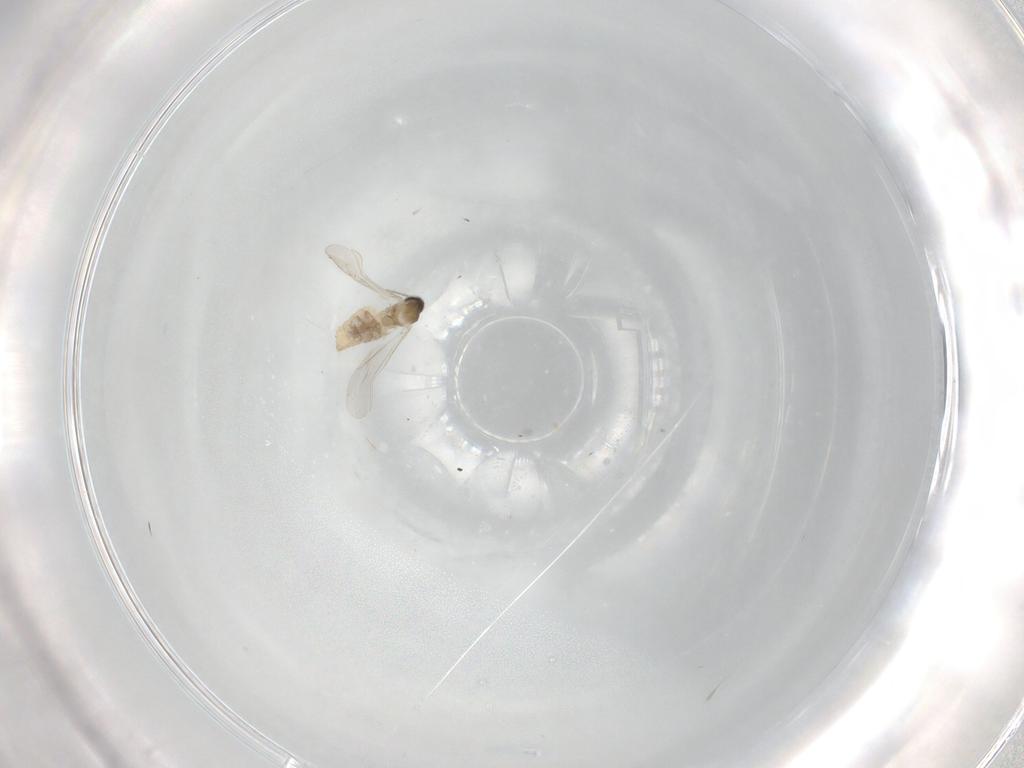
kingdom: Animalia
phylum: Arthropoda
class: Insecta
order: Diptera
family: Cecidomyiidae
